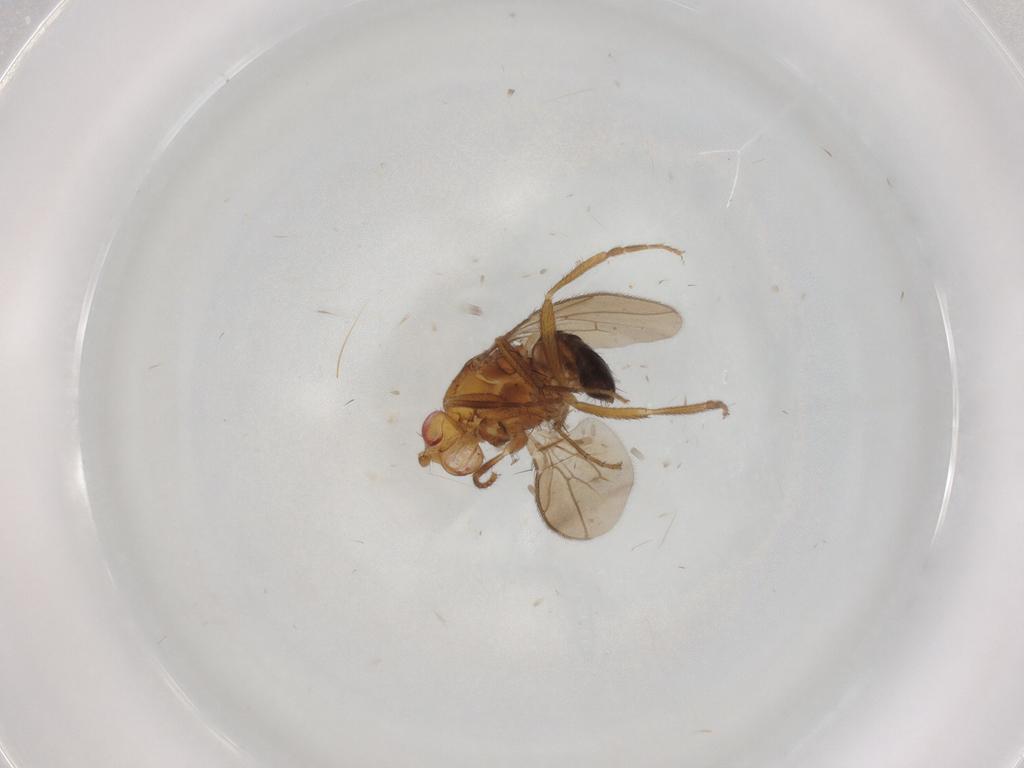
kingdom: Animalia
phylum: Arthropoda
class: Insecta
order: Diptera
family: Sphaeroceridae
